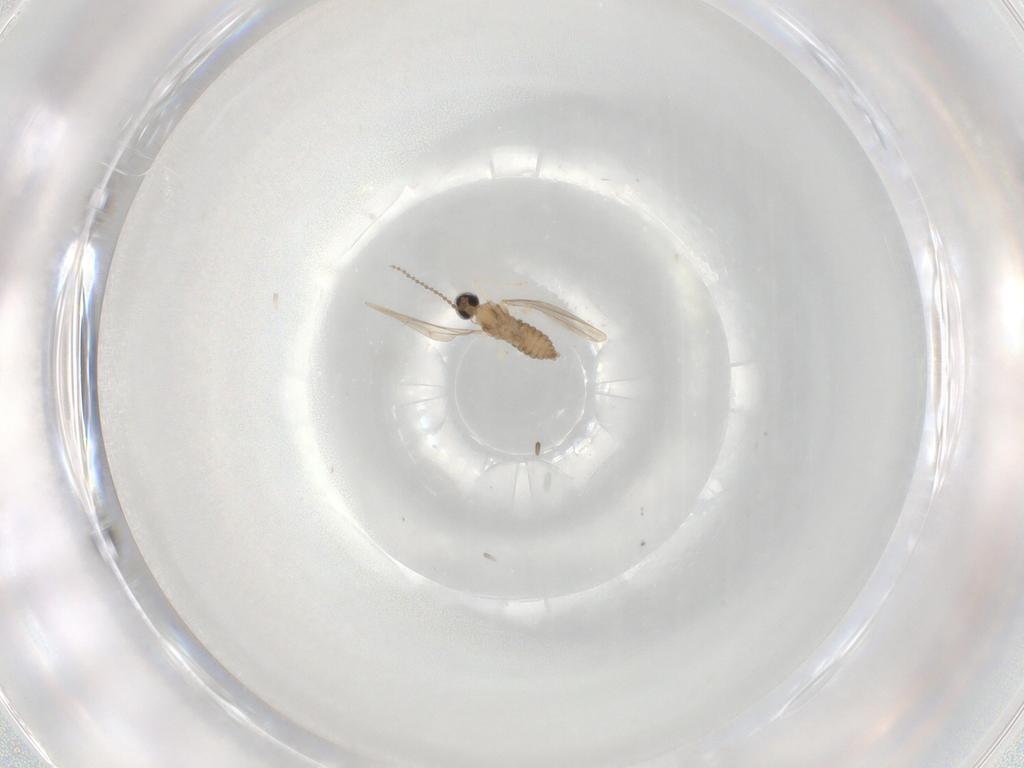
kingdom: Animalia
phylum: Arthropoda
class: Insecta
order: Diptera
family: Cecidomyiidae
